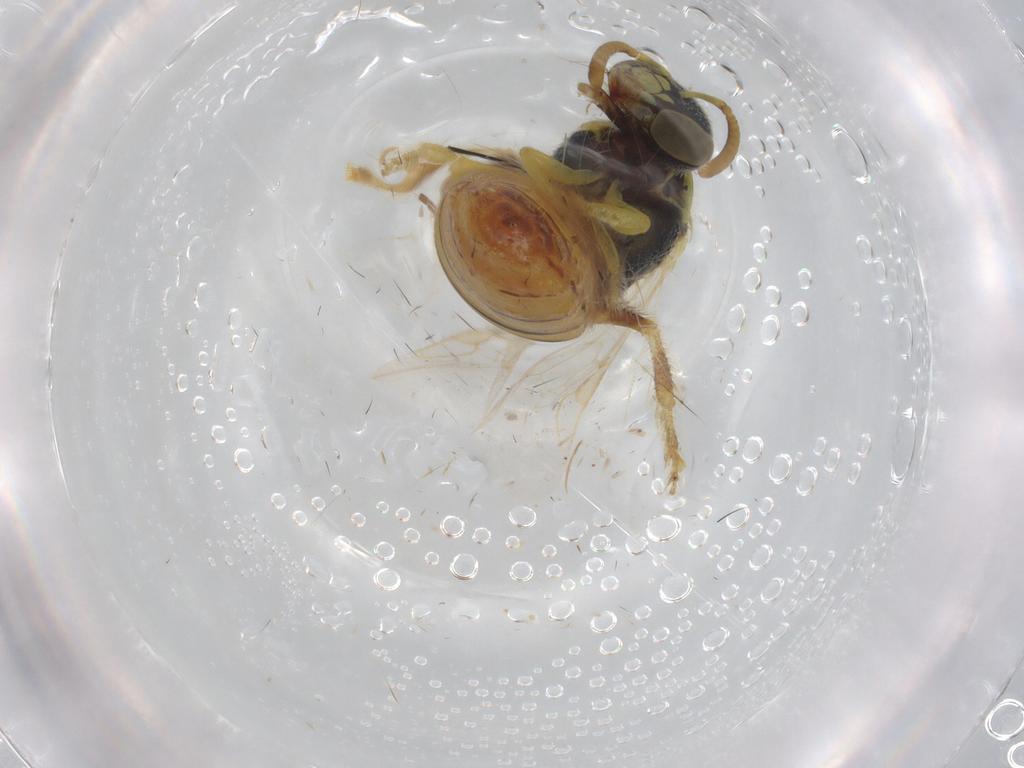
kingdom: Animalia
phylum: Arthropoda
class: Insecta
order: Hymenoptera
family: Halictidae
